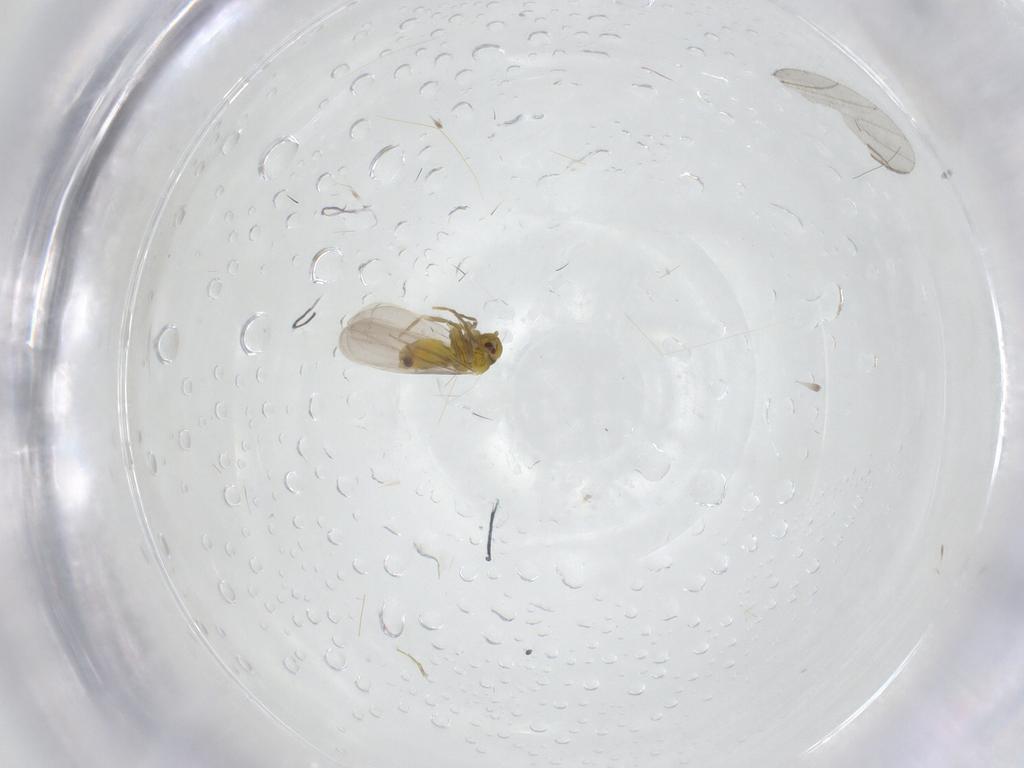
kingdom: Animalia
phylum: Arthropoda
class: Insecta
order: Hemiptera
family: Aleyrodidae
